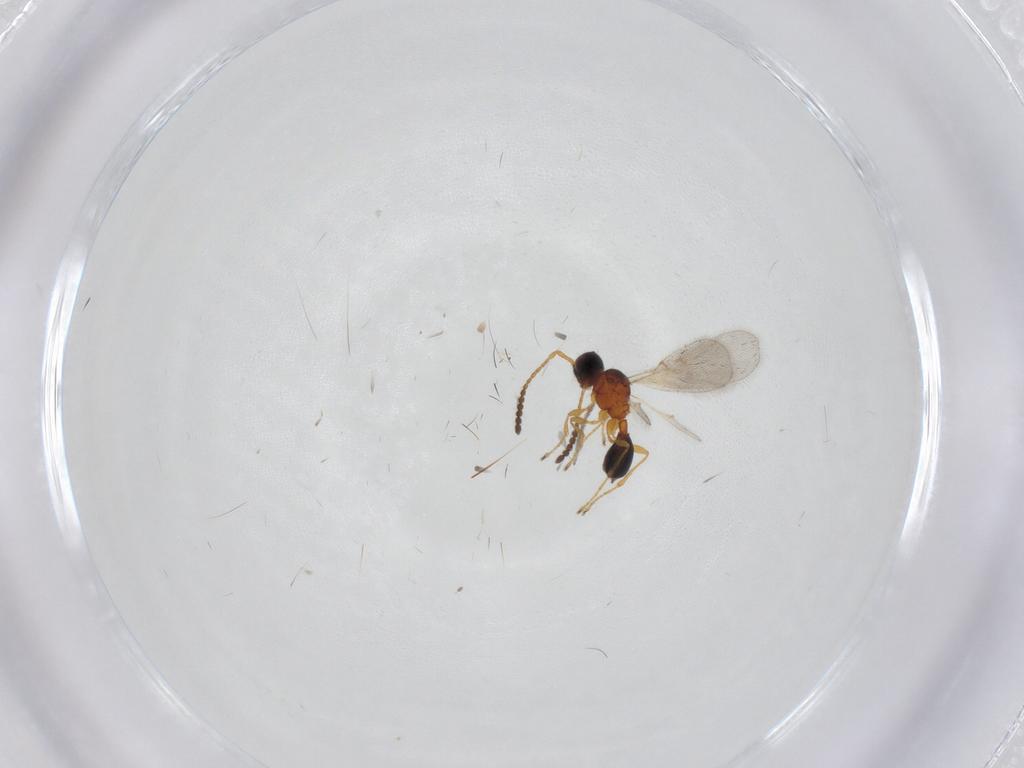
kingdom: Animalia
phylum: Arthropoda
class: Insecta
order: Hymenoptera
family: Diapriidae
